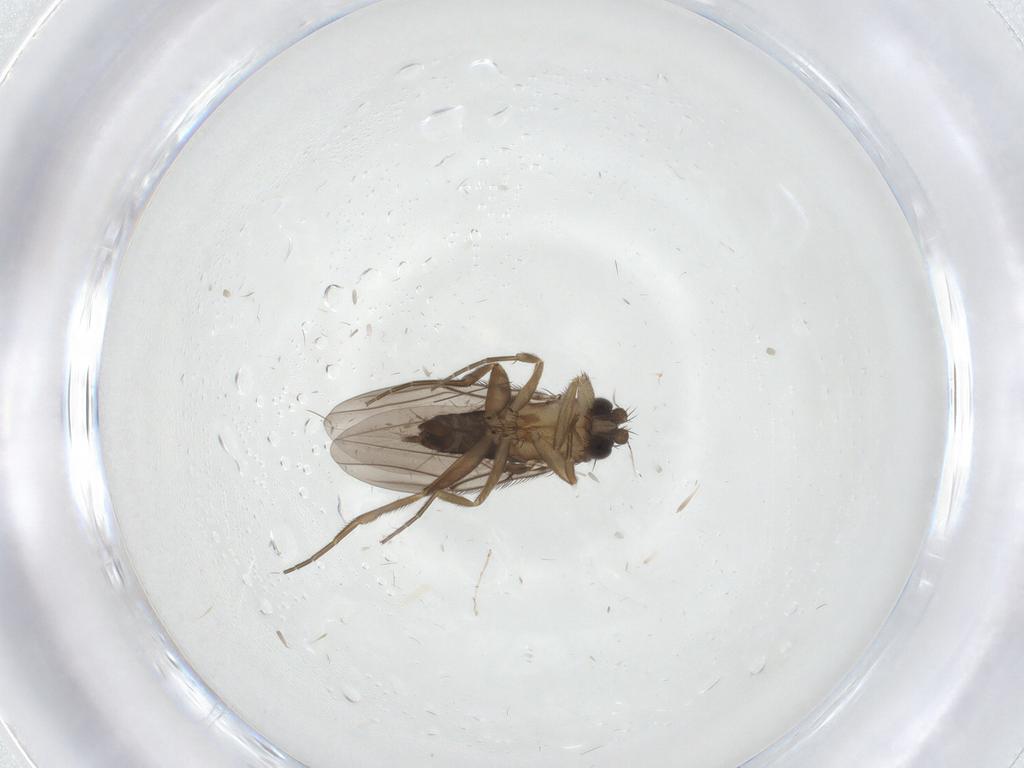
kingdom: Animalia
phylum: Arthropoda
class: Insecta
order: Diptera
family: Cecidomyiidae
